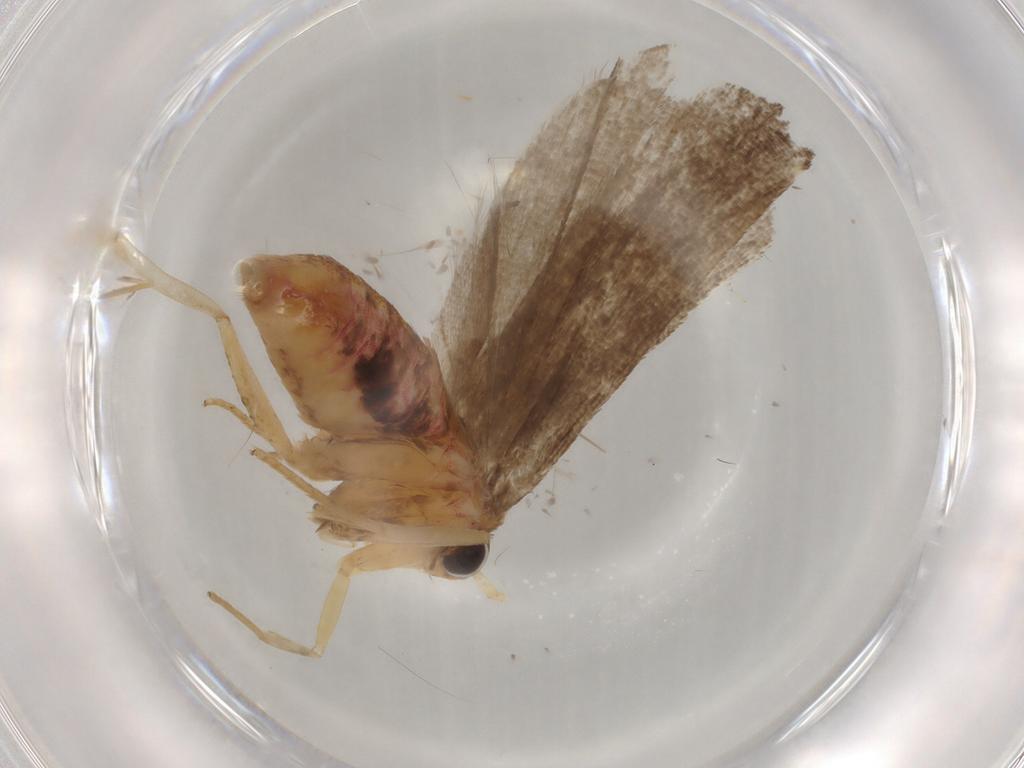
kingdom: Animalia
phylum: Arthropoda
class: Insecta
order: Lepidoptera
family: Lecithoceridae
